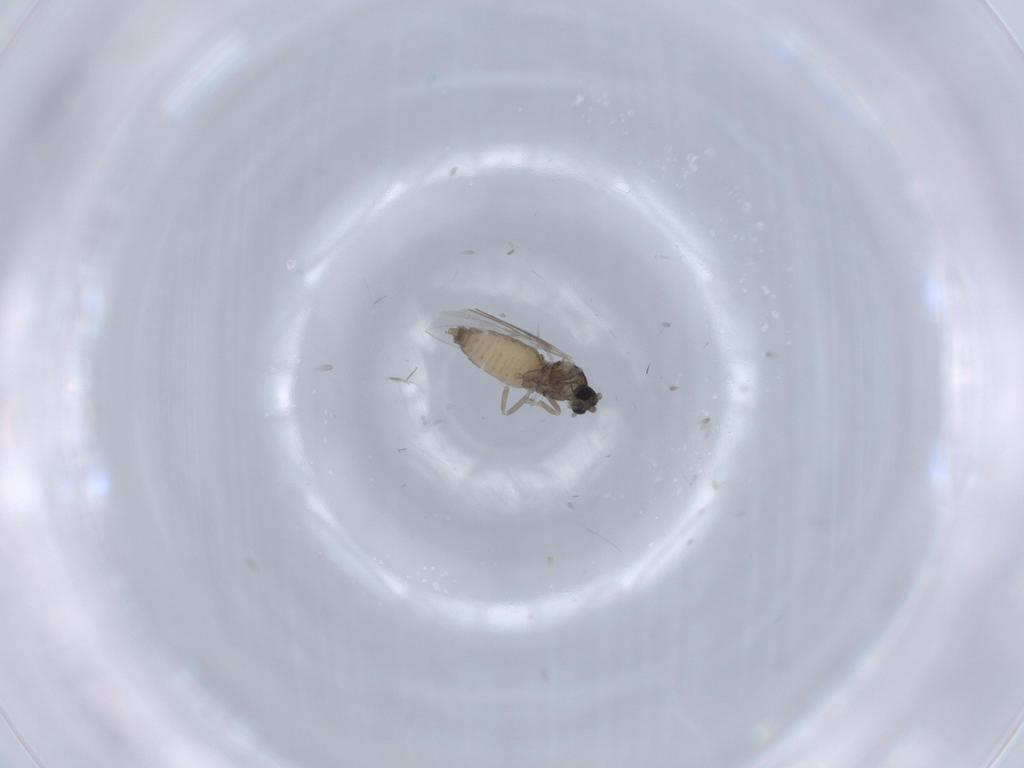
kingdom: Animalia
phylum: Arthropoda
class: Insecta
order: Diptera
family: Cecidomyiidae
